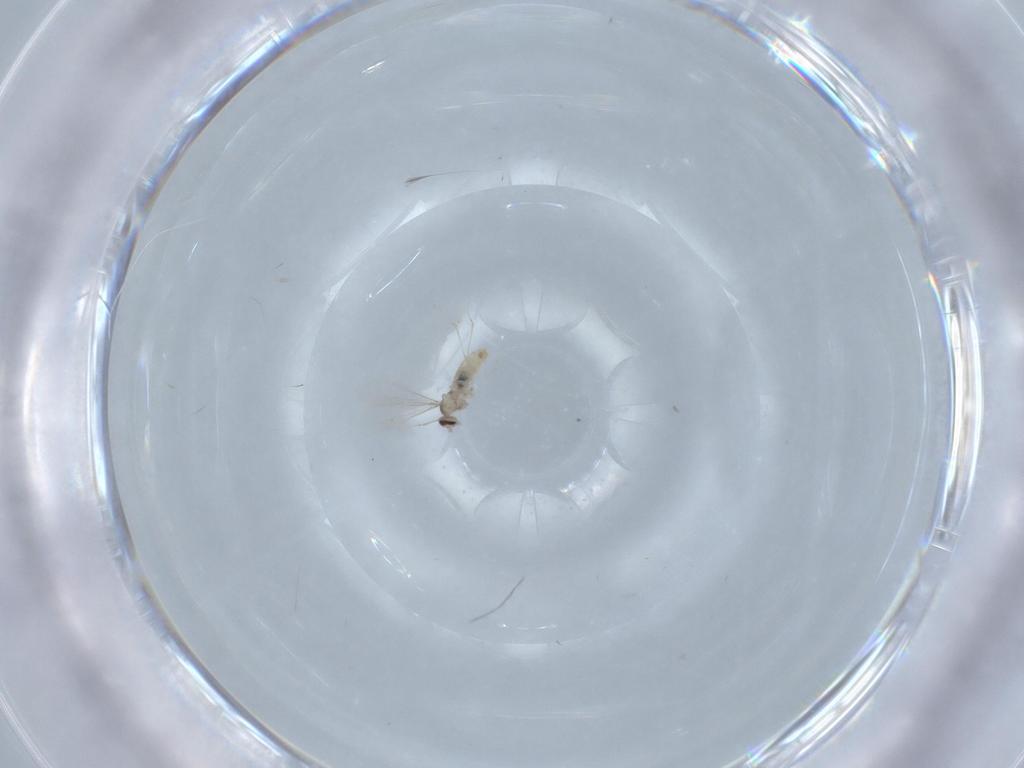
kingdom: Animalia
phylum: Arthropoda
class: Insecta
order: Diptera
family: Cecidomyiidae
